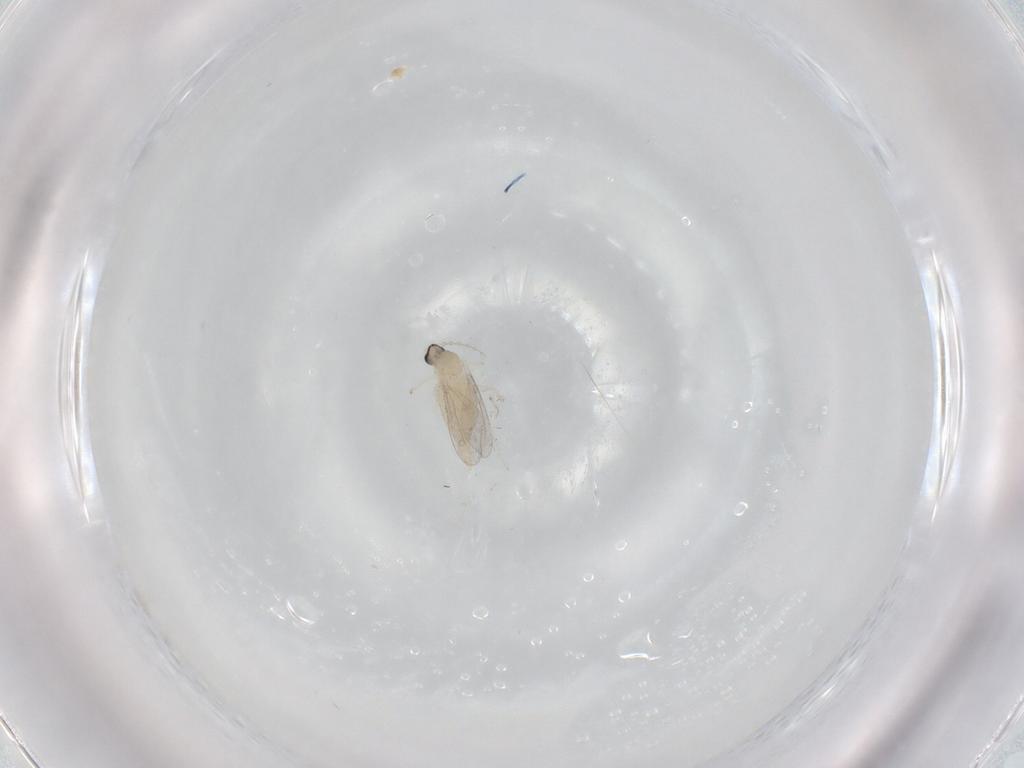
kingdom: Animalia
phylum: Arthropoda
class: Insecta
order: Diptera
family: Cecidomyiidae
